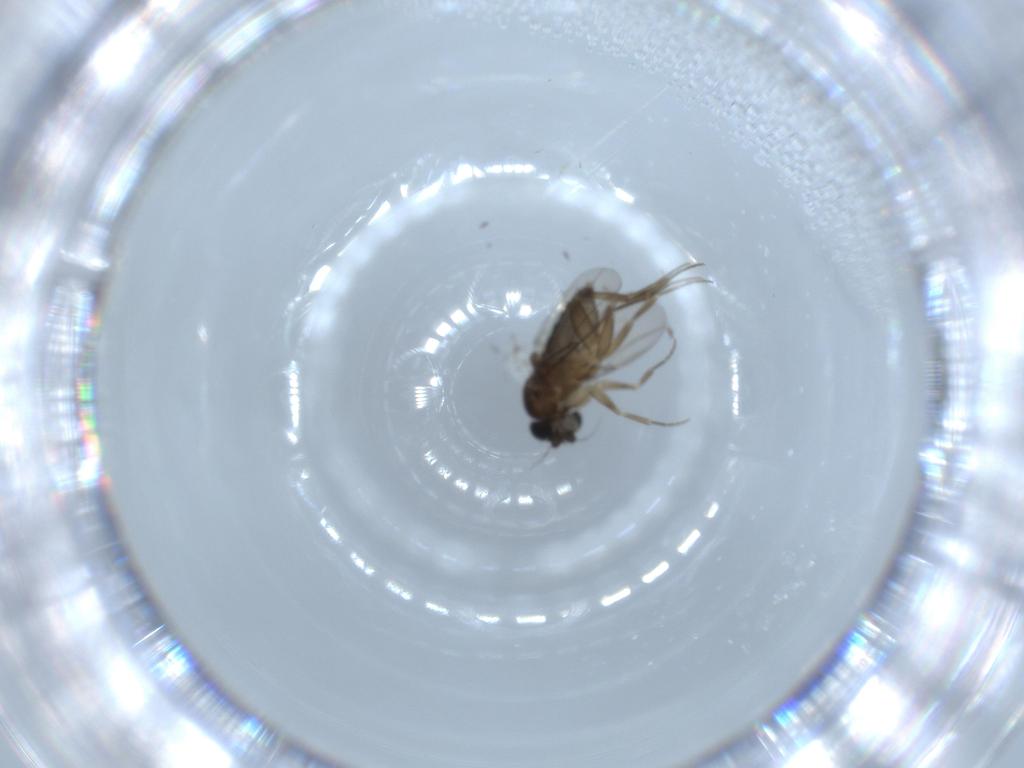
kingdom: Animalia
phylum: Arthropoda
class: Insecta
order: Diptera
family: Phoridae
